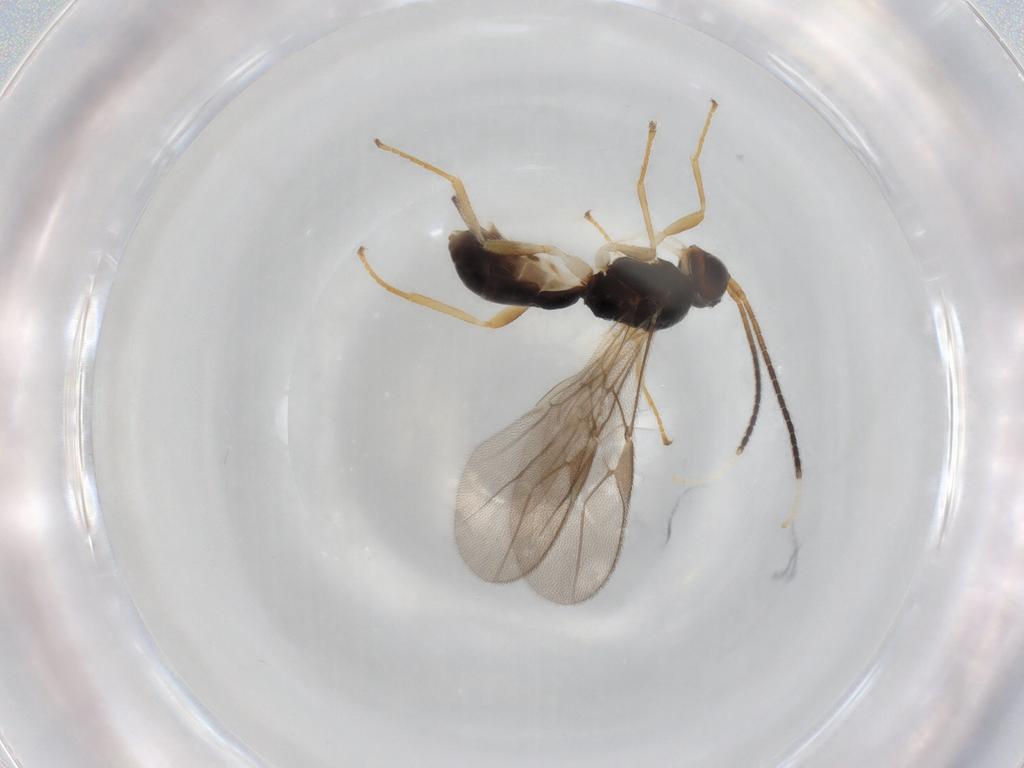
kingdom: Animalia
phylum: Arthropoda
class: Insecta
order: Hymenoptera
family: Braconidae
